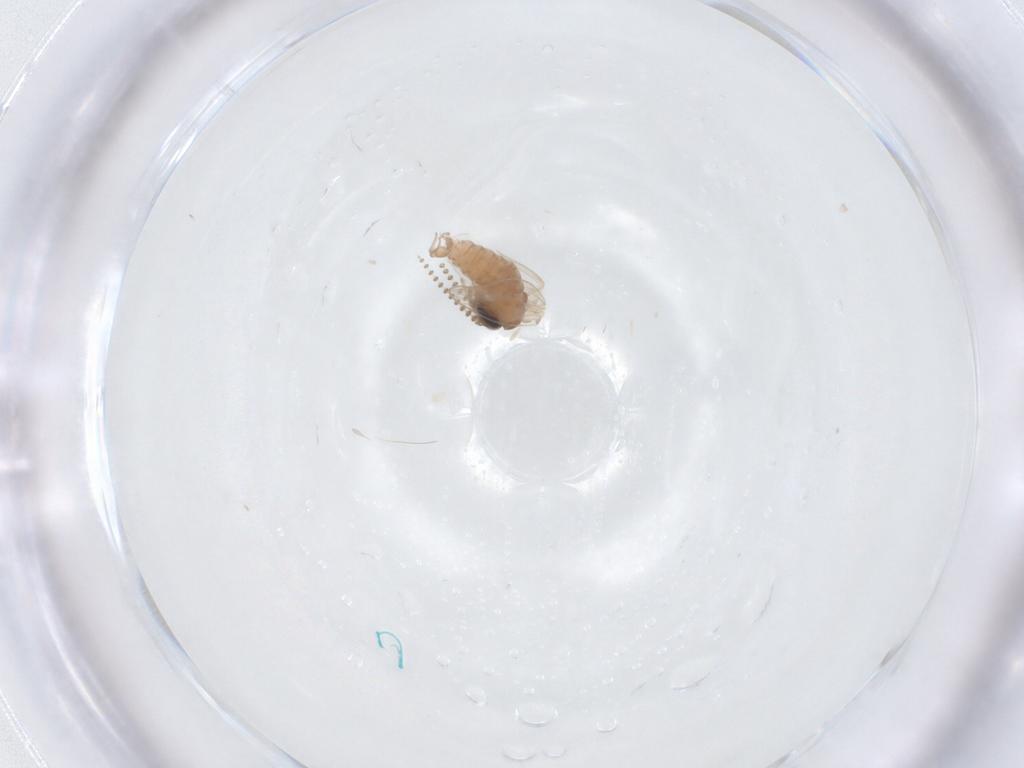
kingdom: Animalia
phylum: Arthropoda
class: Insecta
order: Diptera
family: Psychodidae
